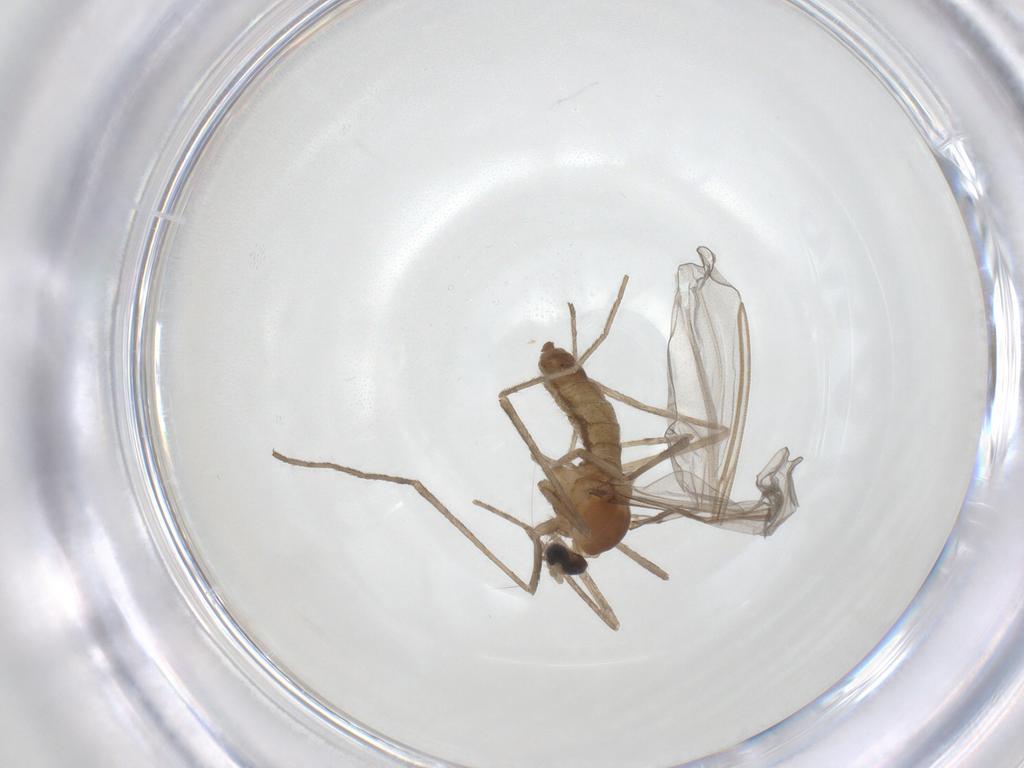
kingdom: Animalia
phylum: Arthropoda
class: Insecta
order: Diptera
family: Cecidomyiidae
